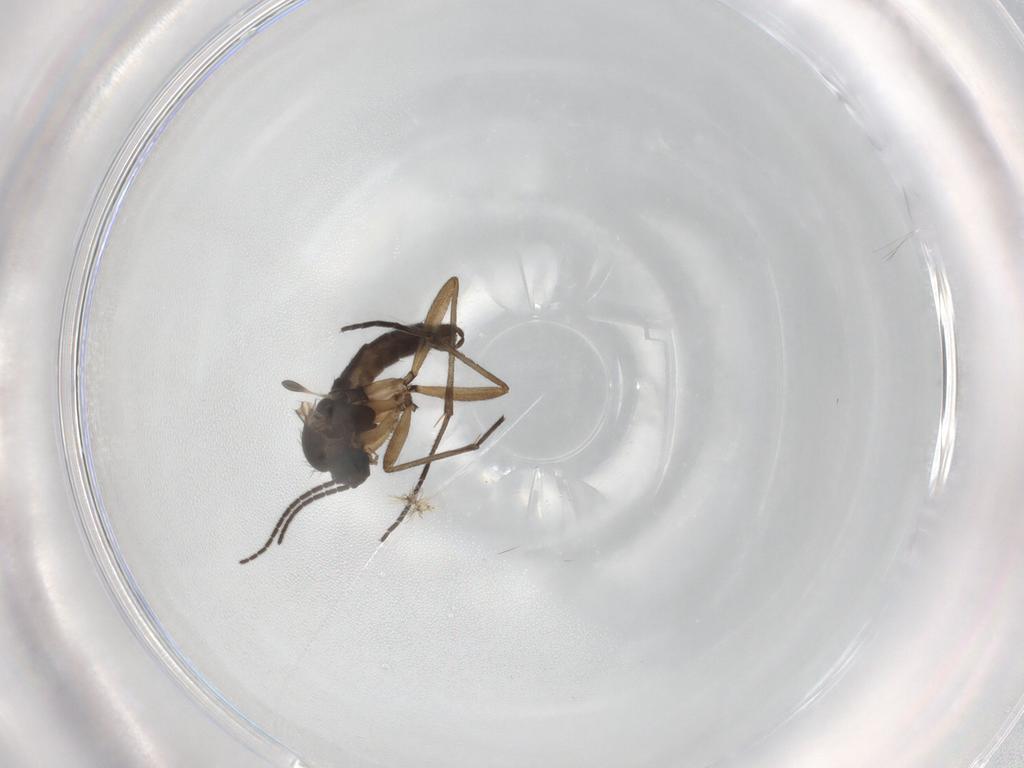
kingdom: Animalia
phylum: Arthropoda
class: Insecta
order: Diptera
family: Sciaridae
